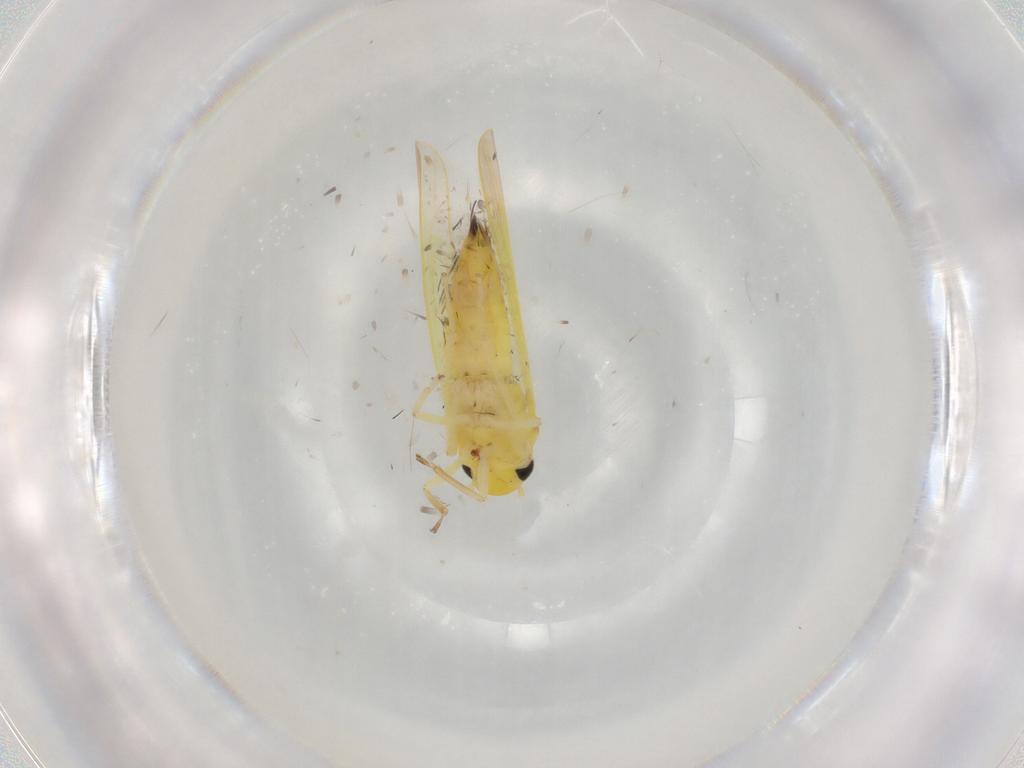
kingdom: Animalia
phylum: Arthropoda
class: Insecta
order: Hemiptera
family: Cicadellidae
